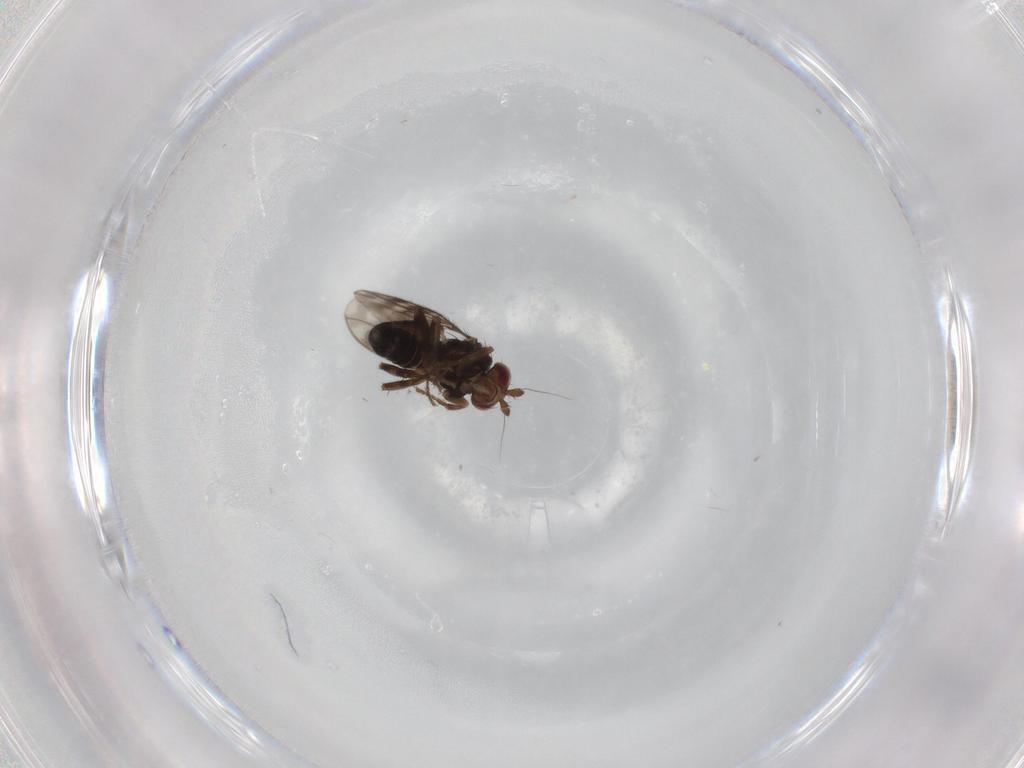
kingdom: Animalia
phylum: Arthropoda
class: Insecta
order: Diptera
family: Sphaeroceridae
